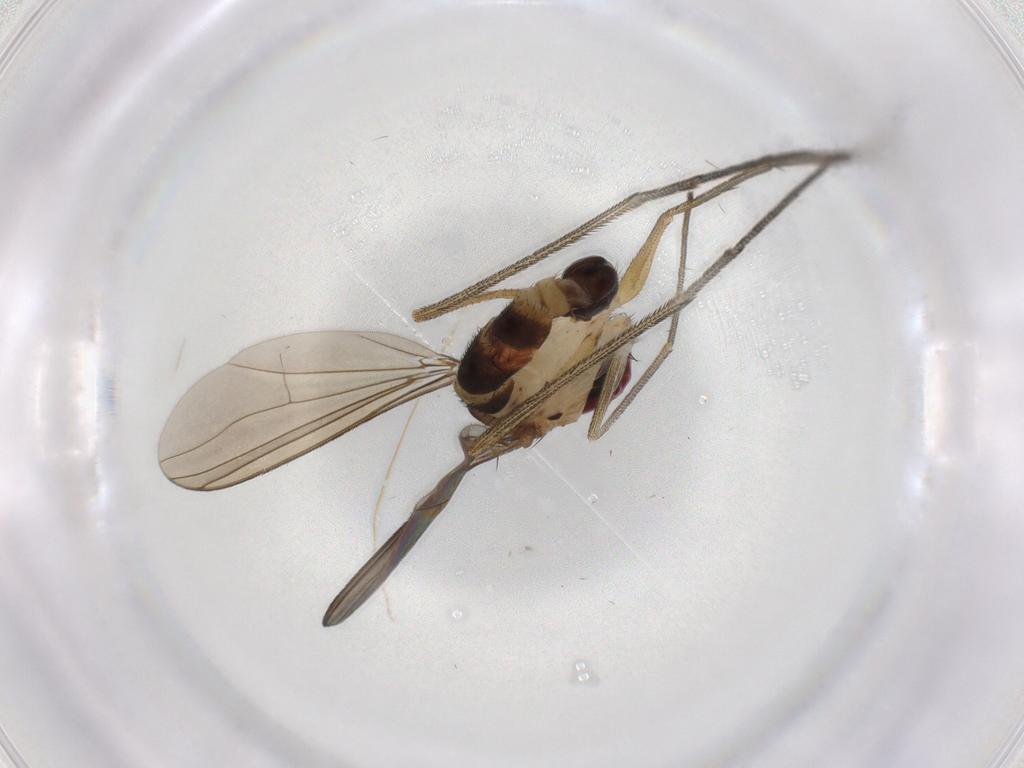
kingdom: Animalia
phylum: Arthropoda
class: Insecta
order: Diptera
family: Dolichopodidae
